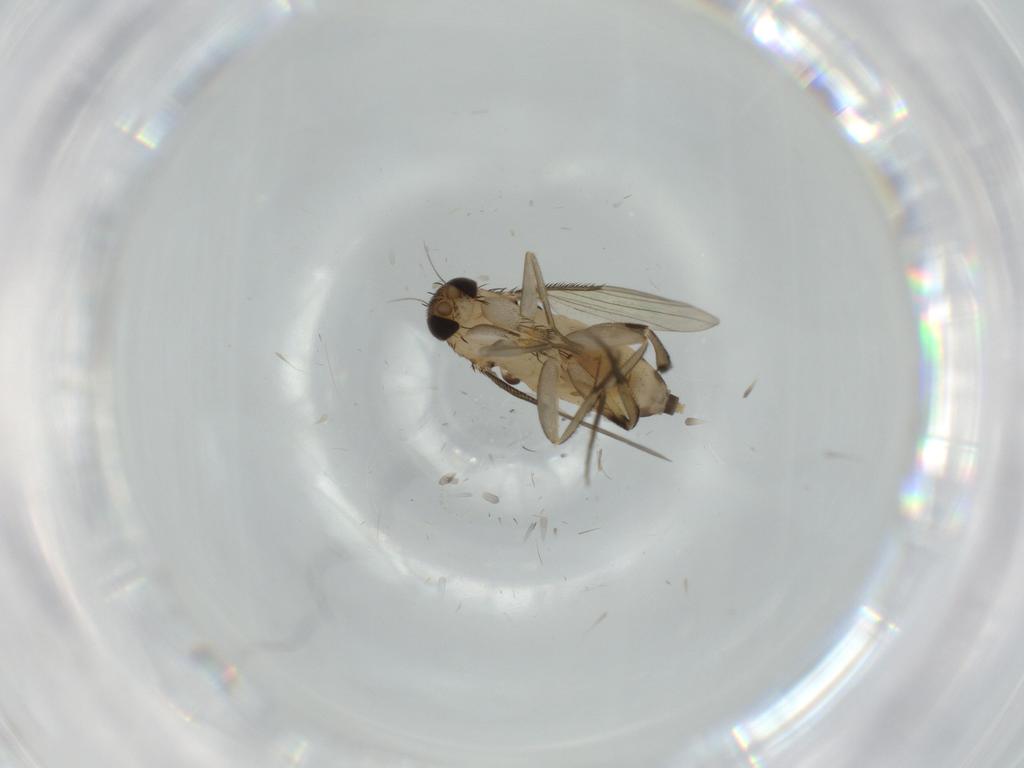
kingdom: Animalia
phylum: Arthropoda
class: Insecta
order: Diptera
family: Phoridae
